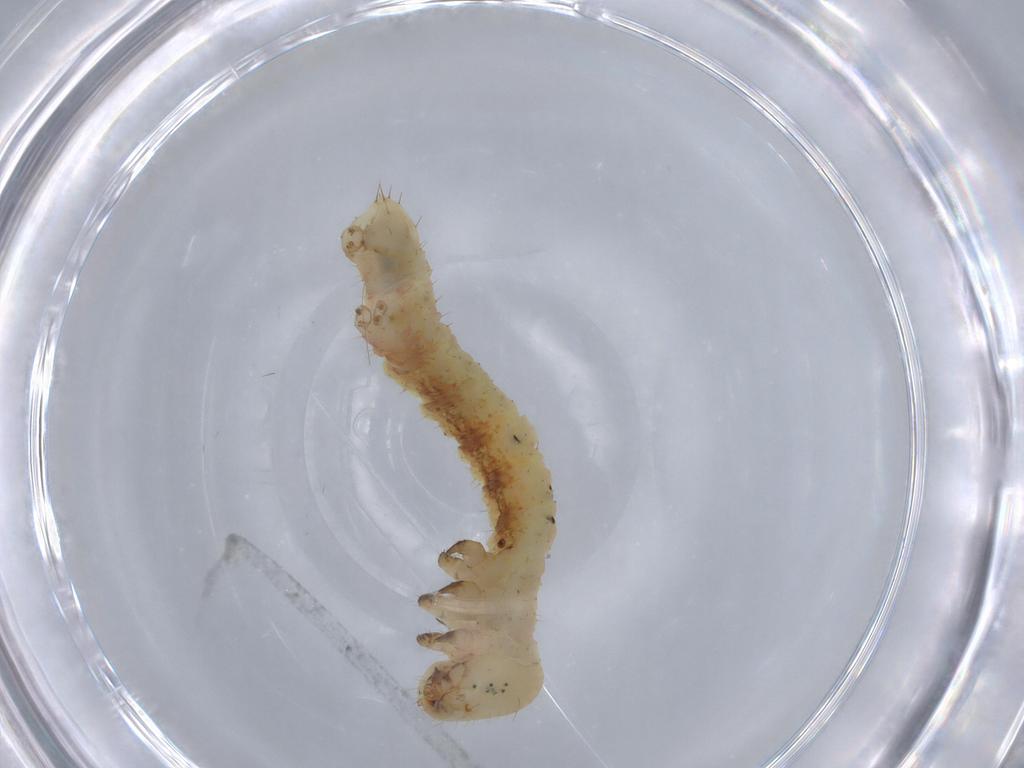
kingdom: Animalia
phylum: Arthropoda
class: Insecta
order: Lepidoptera
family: Geometridae
